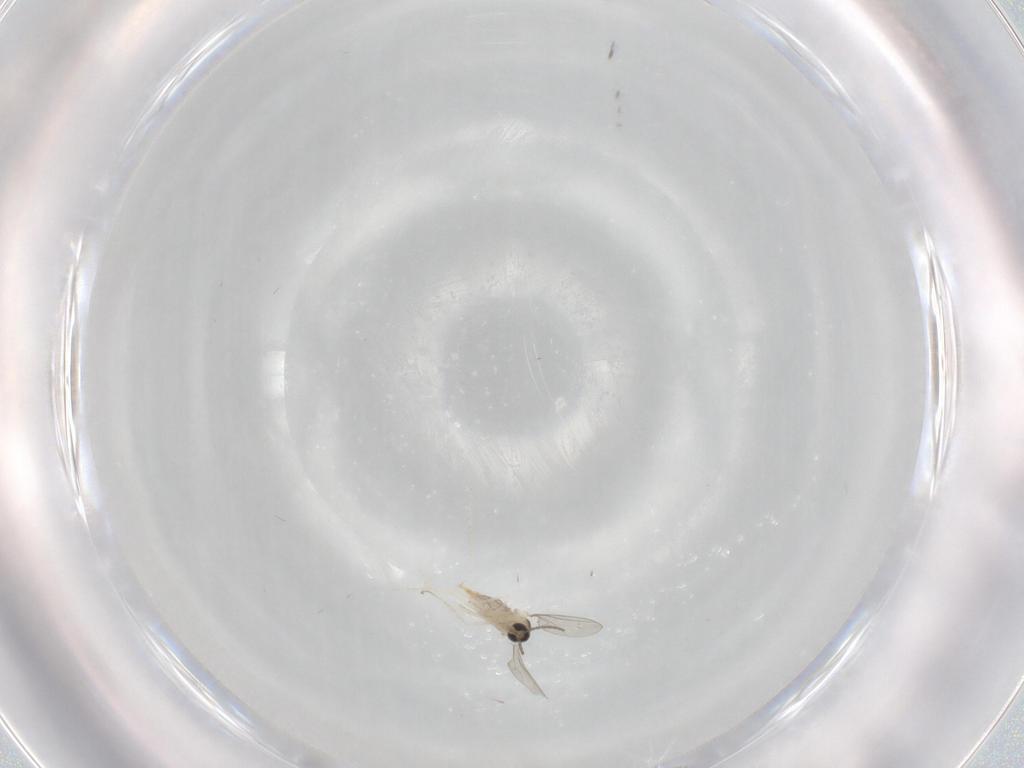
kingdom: Animalia
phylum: Arthropoda
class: Insecta
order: Diptera
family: Cecidomyiidae
